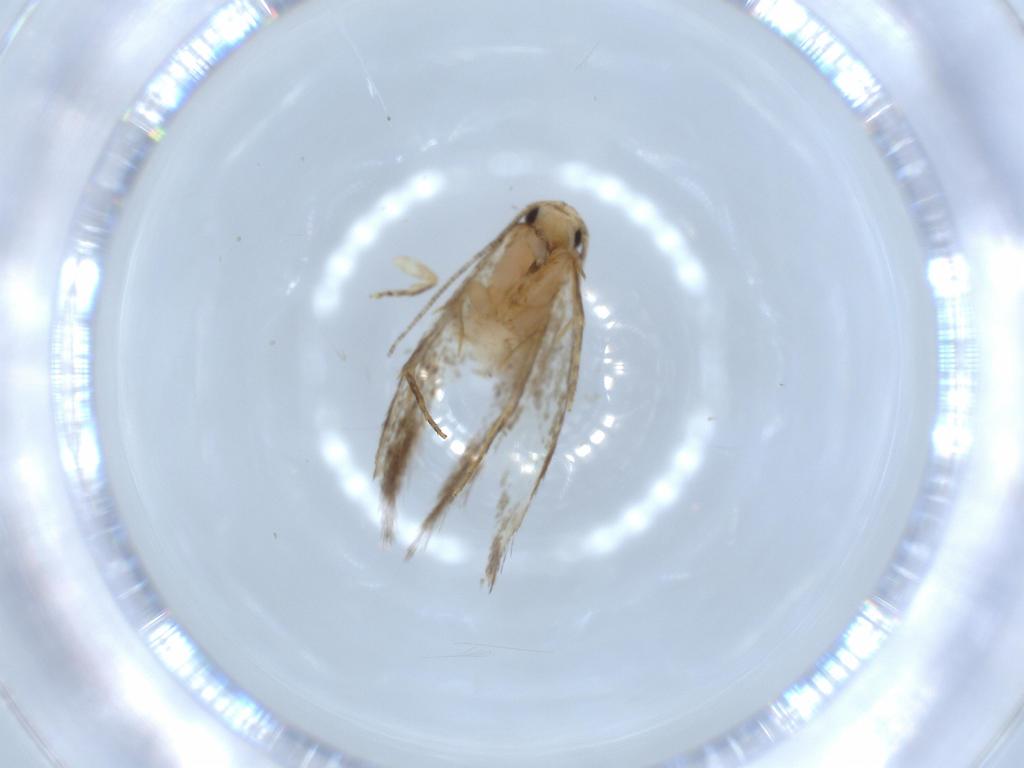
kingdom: Animalia
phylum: Arthropoda
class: Insecta
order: Lepidoptera
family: Tineidae
